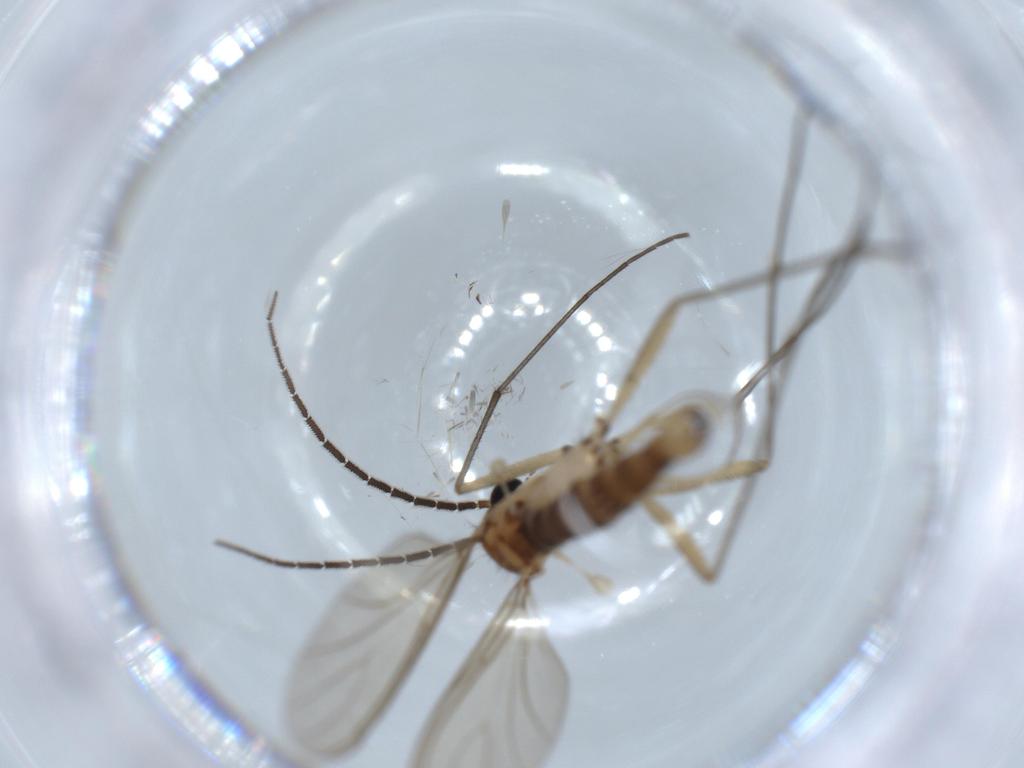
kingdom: Animalia
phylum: Arthropoda
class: Insecta
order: Diptera
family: Sciaridae
